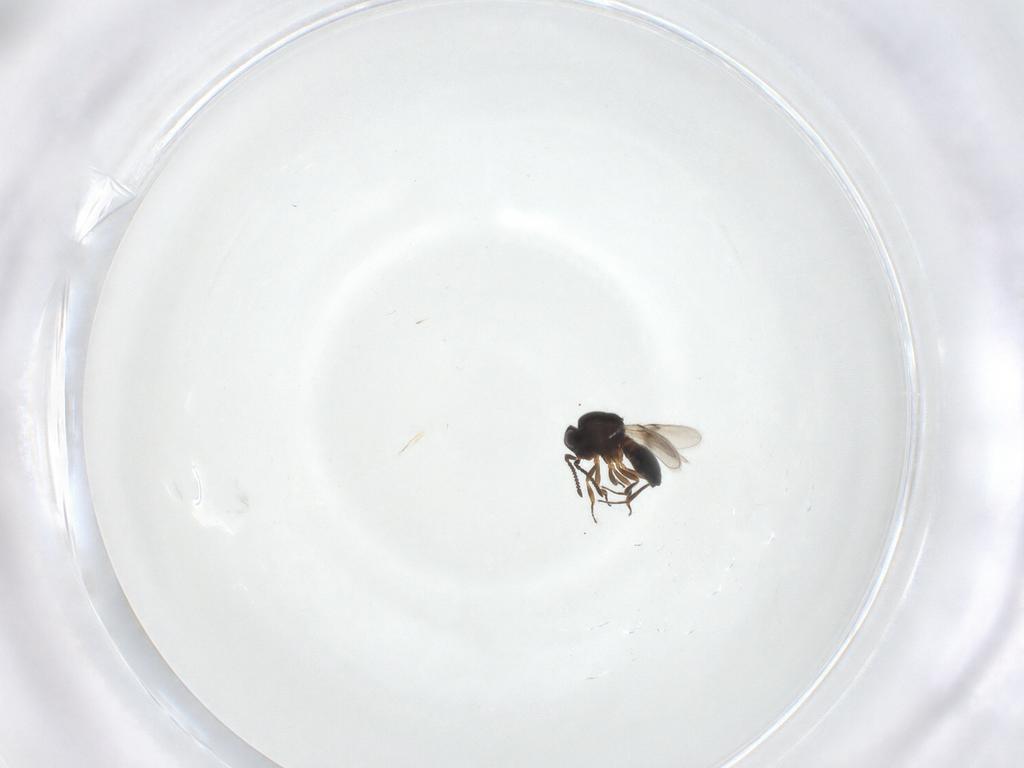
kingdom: Animalia
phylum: Arthropoda
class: Insecta
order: Hymenoptera
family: Scelionidae
